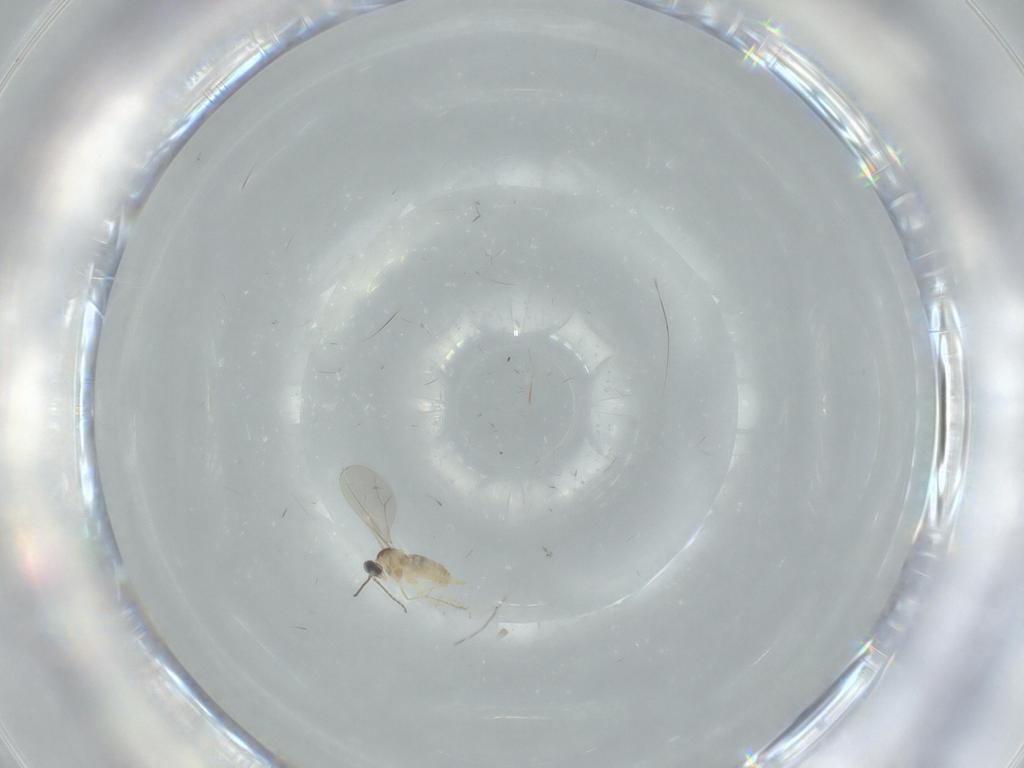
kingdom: Animalia
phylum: Arthropoda
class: Insecta
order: Diptera
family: Cecidomyiidae
